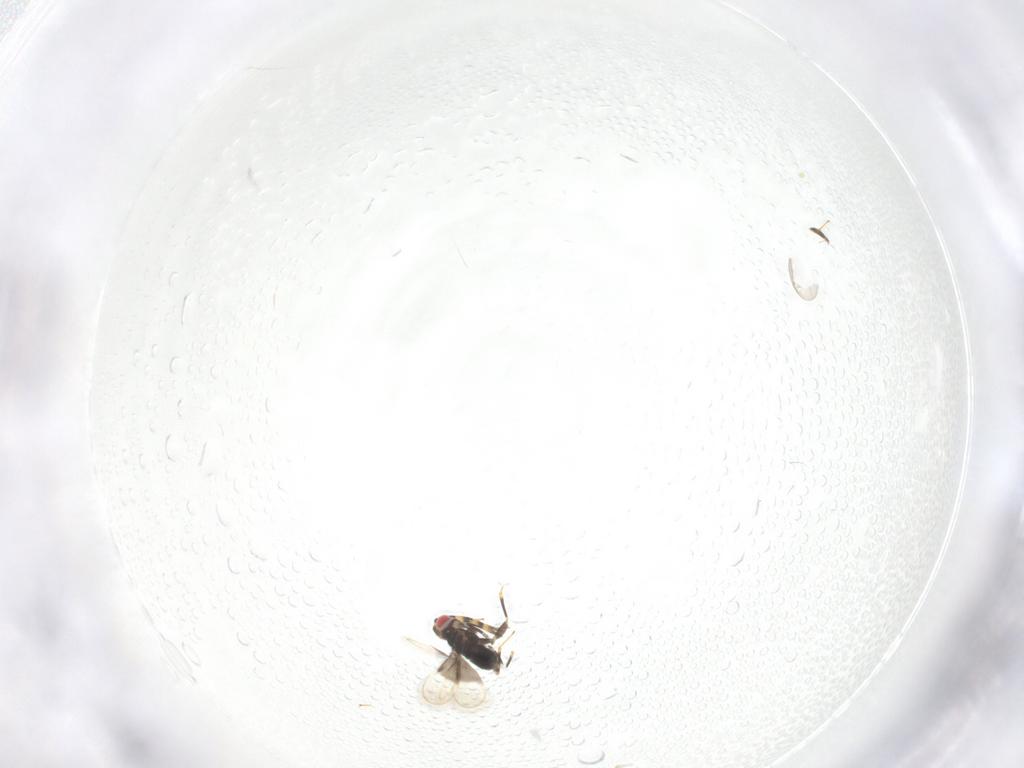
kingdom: Animalia
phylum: Arthropoda
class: Insecta
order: Hymenoptera
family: Azotidae
